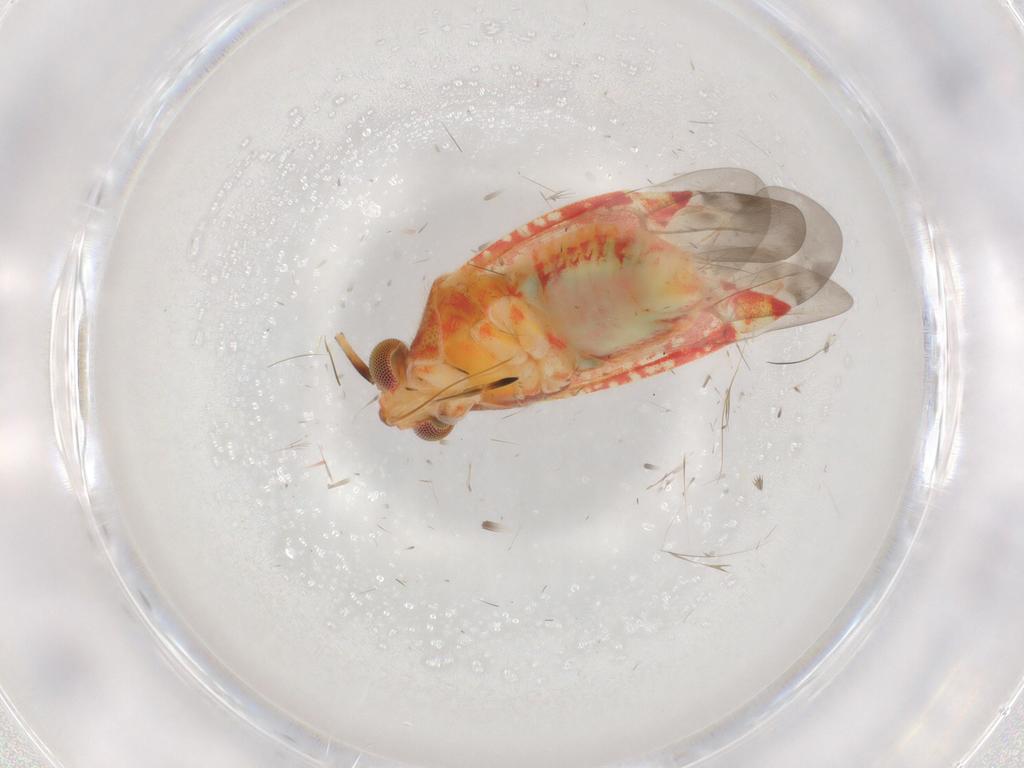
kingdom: Animalia
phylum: Arthropoda
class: Insecta
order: Hemiptera
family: Miridae
